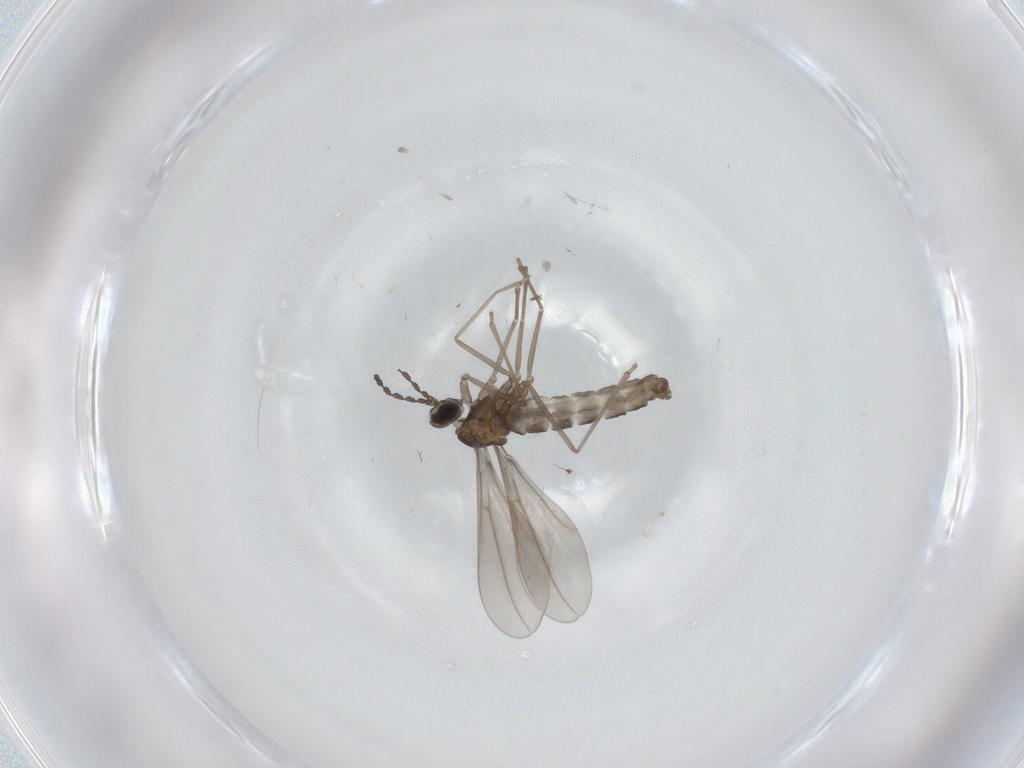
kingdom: Animalia
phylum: Arthropoda
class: Insecta
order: Diptera
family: Cecidomyiidae
